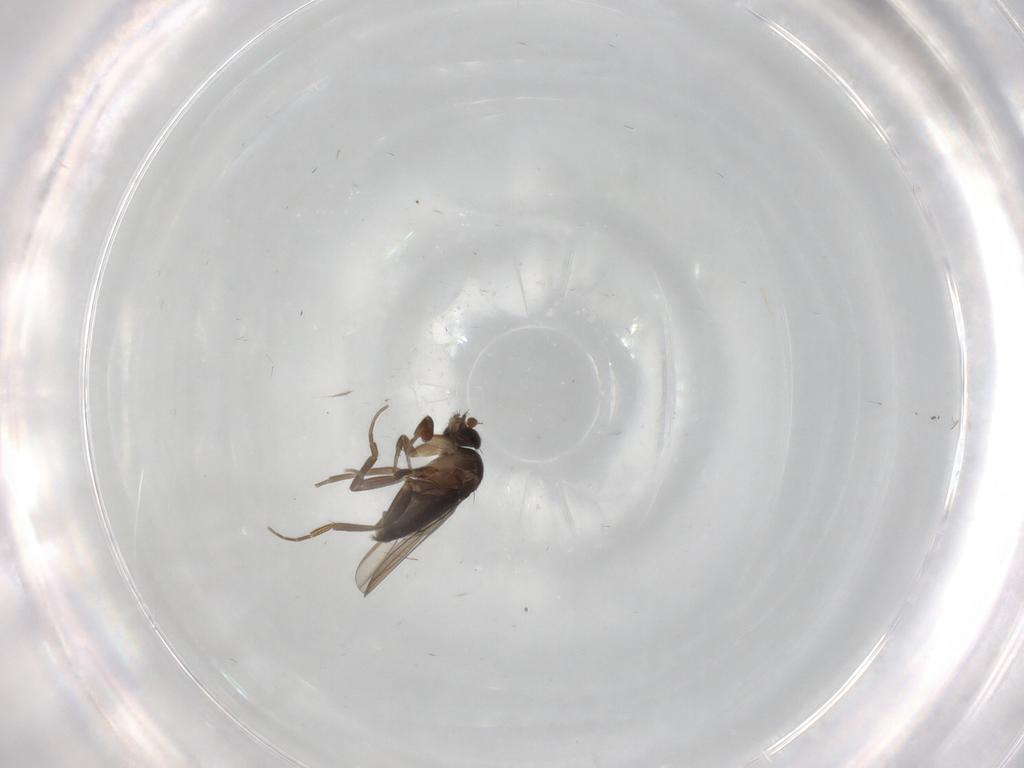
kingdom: Animalia
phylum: Arthropoda
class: Insecta
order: Diptera
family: Phoridae
